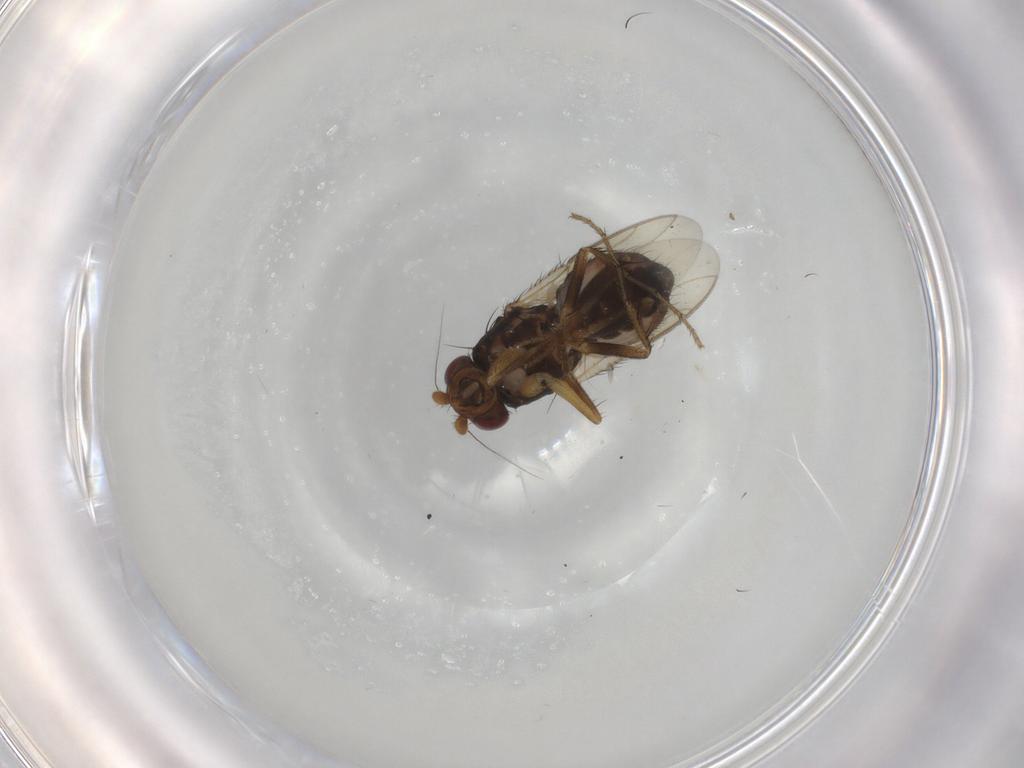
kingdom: Animalia
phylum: Arthropoda
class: Insecta
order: Diptera
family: Sphaeroceridae
